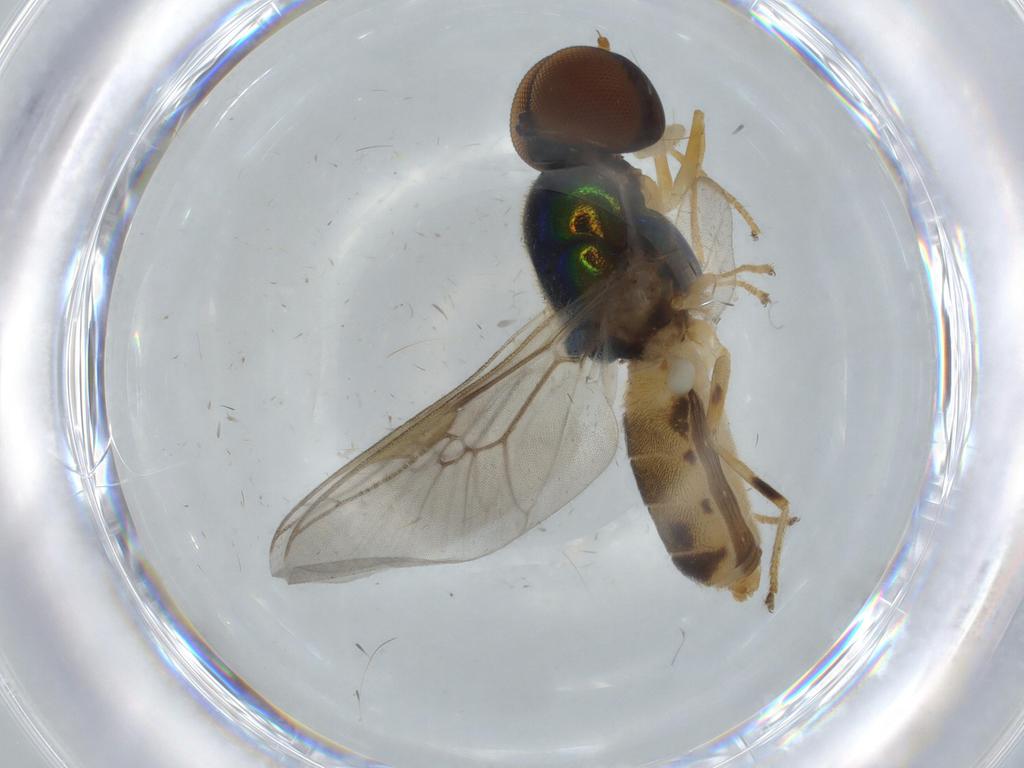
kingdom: Animalia
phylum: Arthropoda
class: Insecta
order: Diptera
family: Ceratopogonidae
